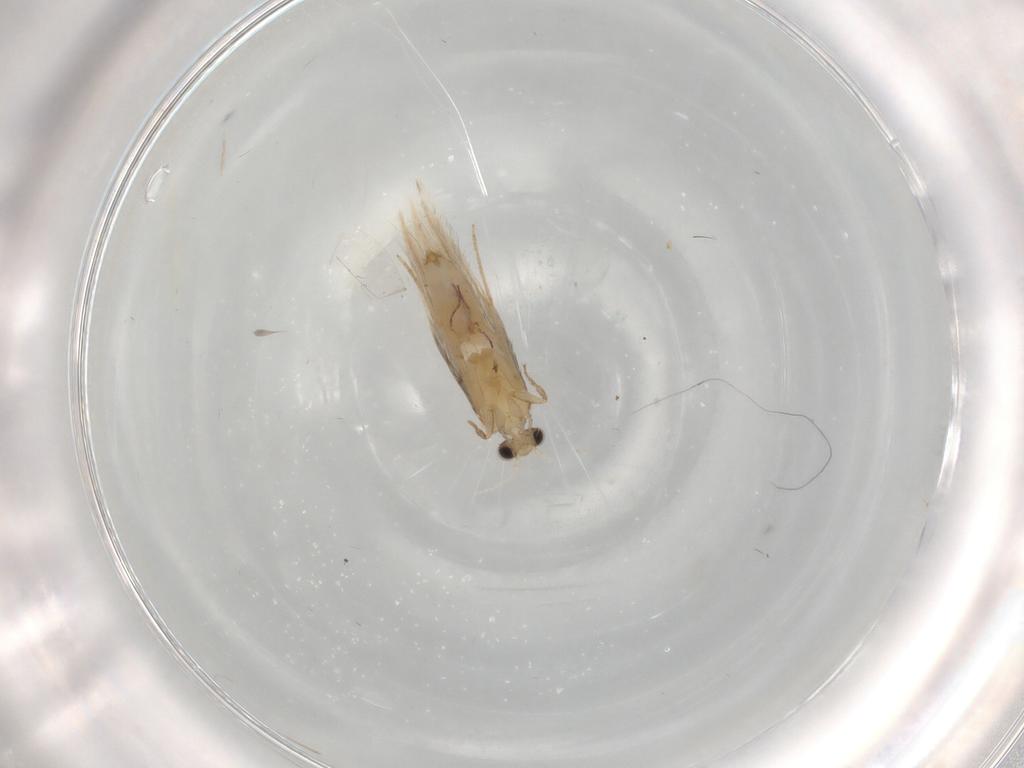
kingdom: Animalia
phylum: Arthropoda
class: Insecta
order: Trichoptera
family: Hydroptilidae
